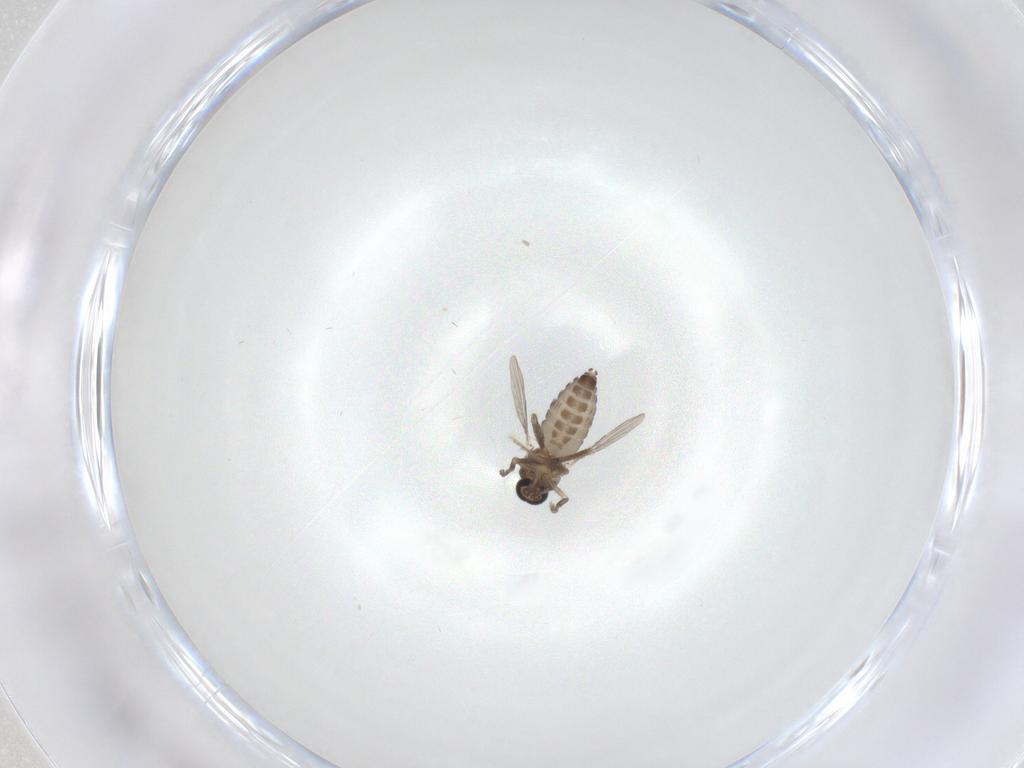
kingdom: Animalia
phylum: Arthropoda
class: Insecta
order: Diptera
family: Ceratopogonidae
